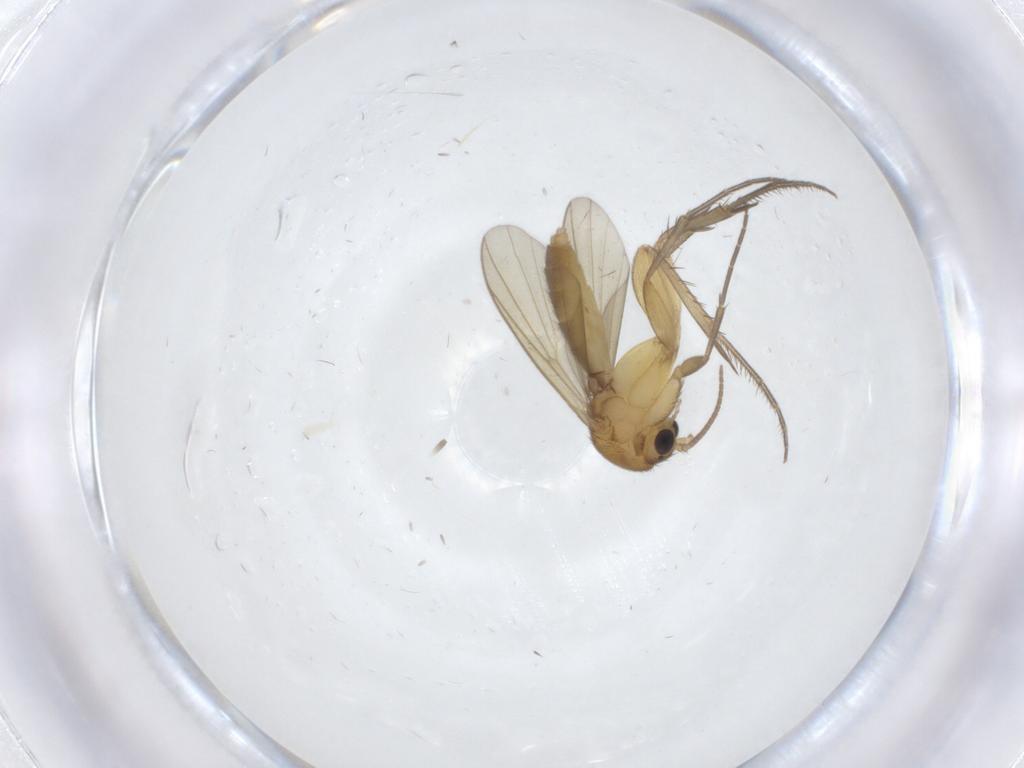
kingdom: Animalia
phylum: Arthropoda
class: Insecta
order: Diptera
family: Mycetophilidae
